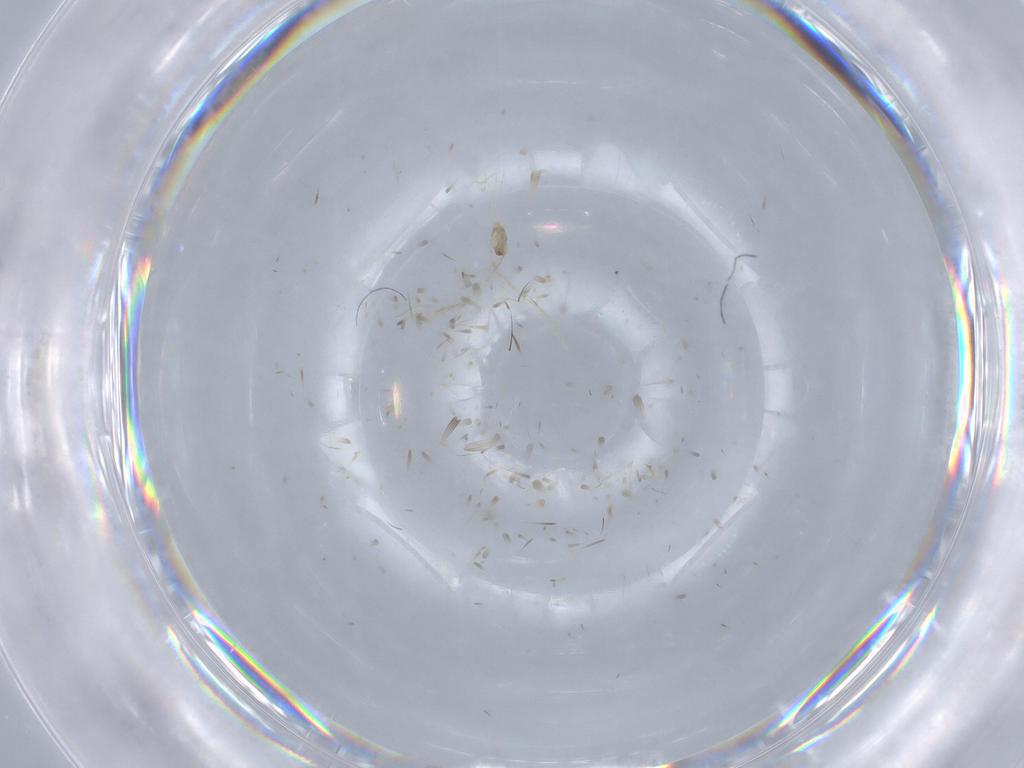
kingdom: Animalia
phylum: Arthropoda
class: Insecta
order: Diptera
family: Cecidomyiidae
